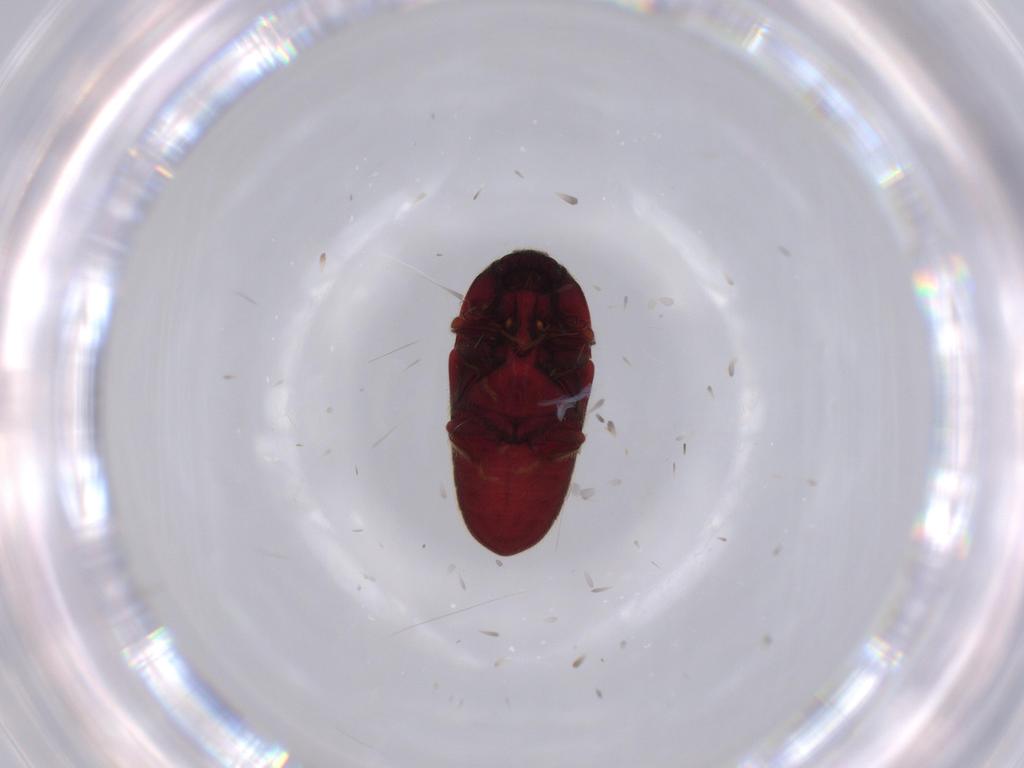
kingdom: Animalia
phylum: Arthropoda
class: Insecta
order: Coleoptera
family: Throscidae
